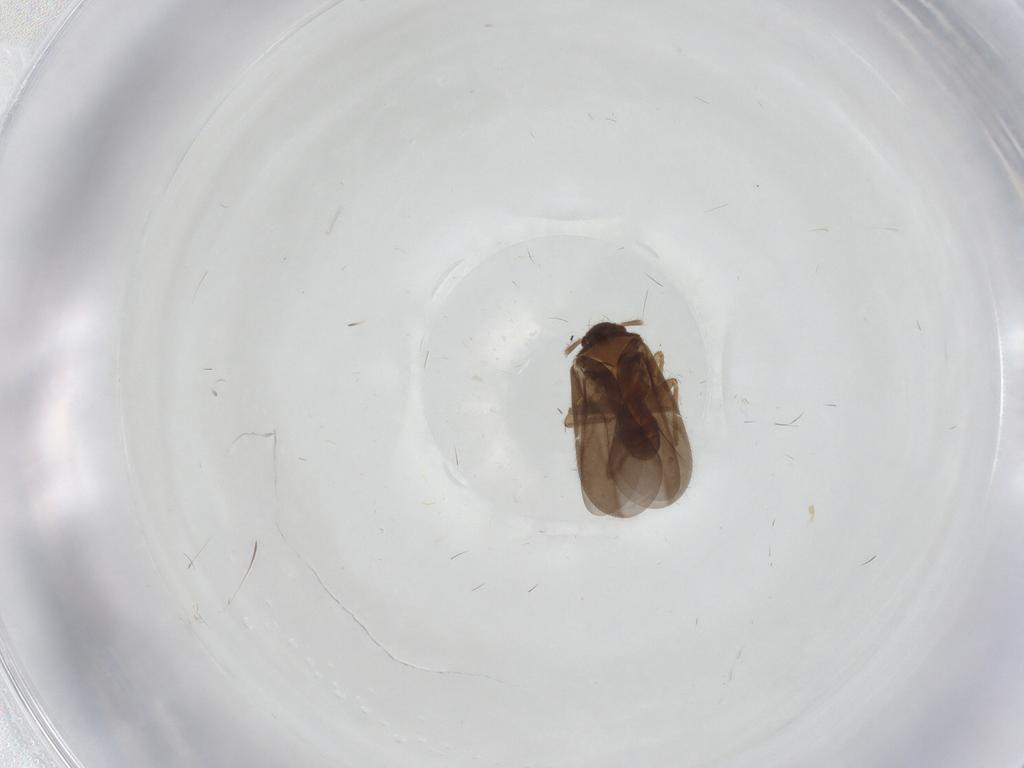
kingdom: Animalia
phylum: Arthropoda
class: Insecta
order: Hemiptera
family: Ceratocombidae
